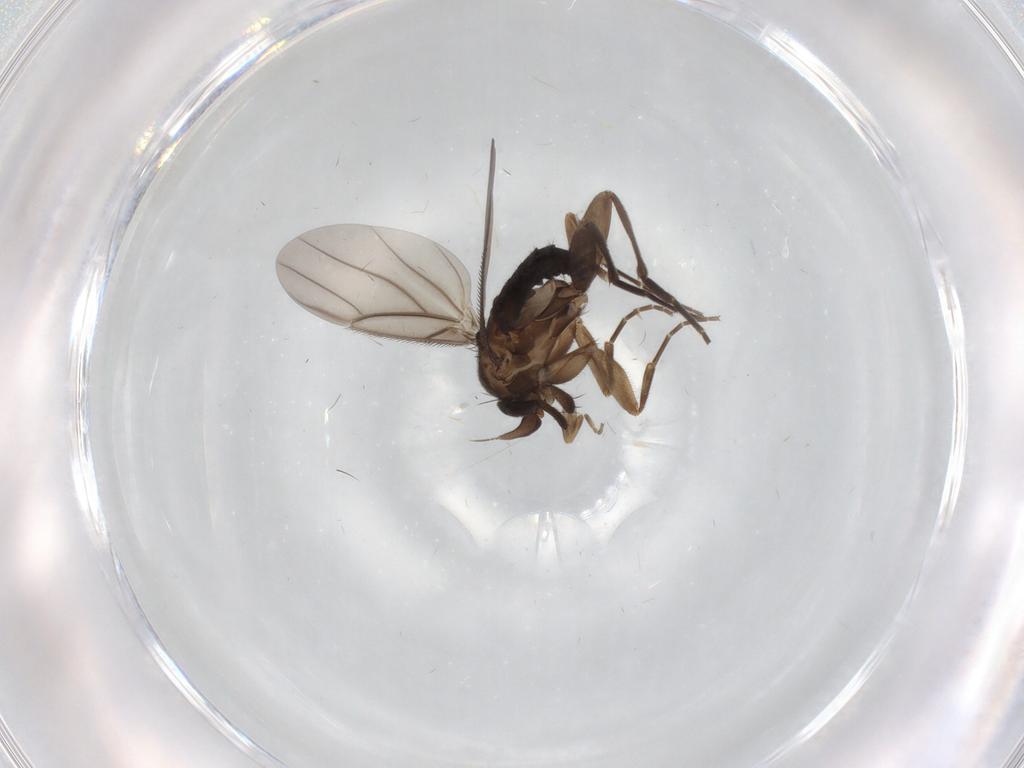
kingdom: Animalia
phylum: Arthropoda
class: Insecta
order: Diptera
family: Phoridae
